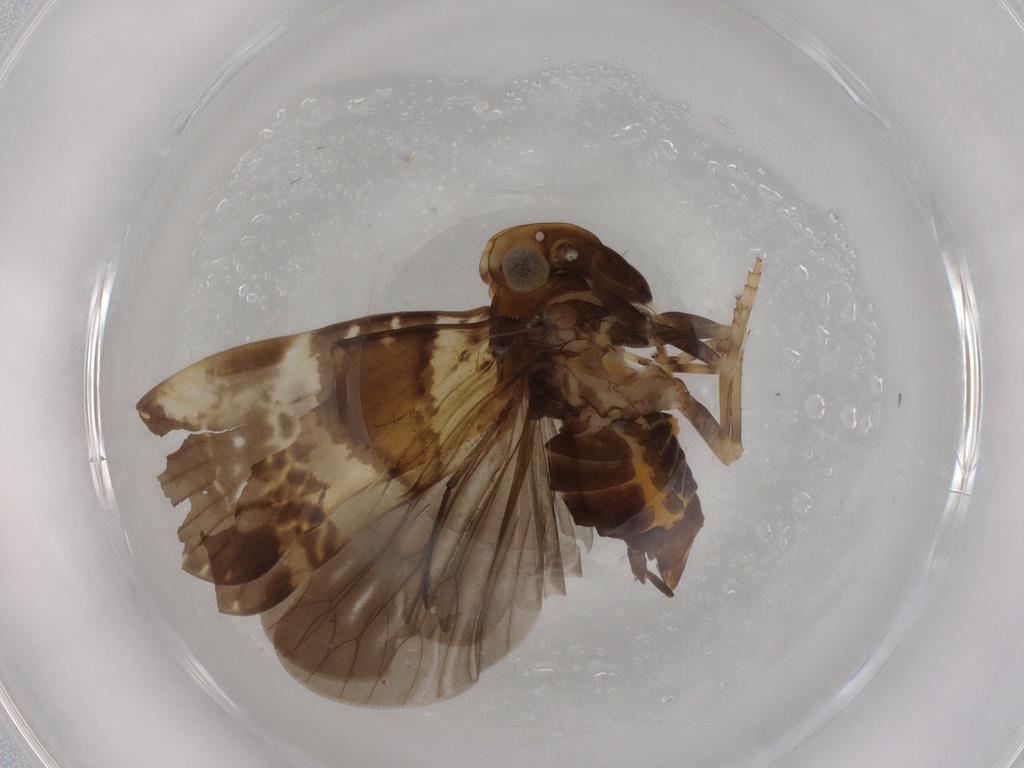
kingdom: Animalia
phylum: Arthropoda
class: Insecta
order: Hemiptera
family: Cixiidae
